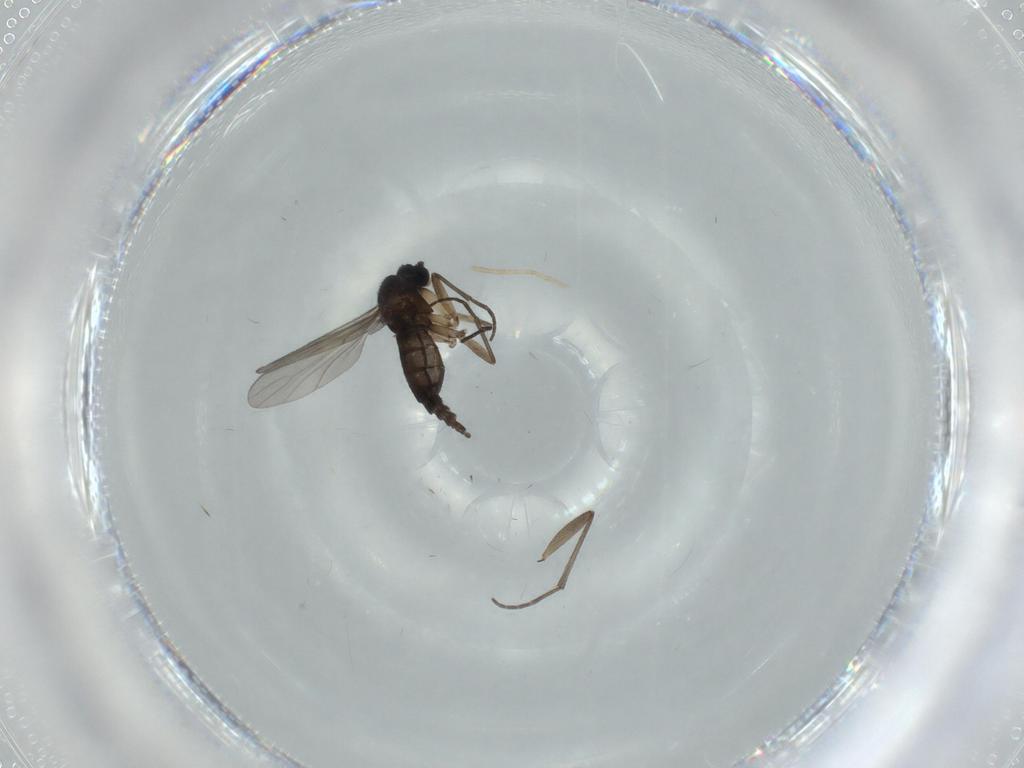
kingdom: Animalia
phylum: Arthropoda
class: Insecta
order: Diptera
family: Sciaridae
